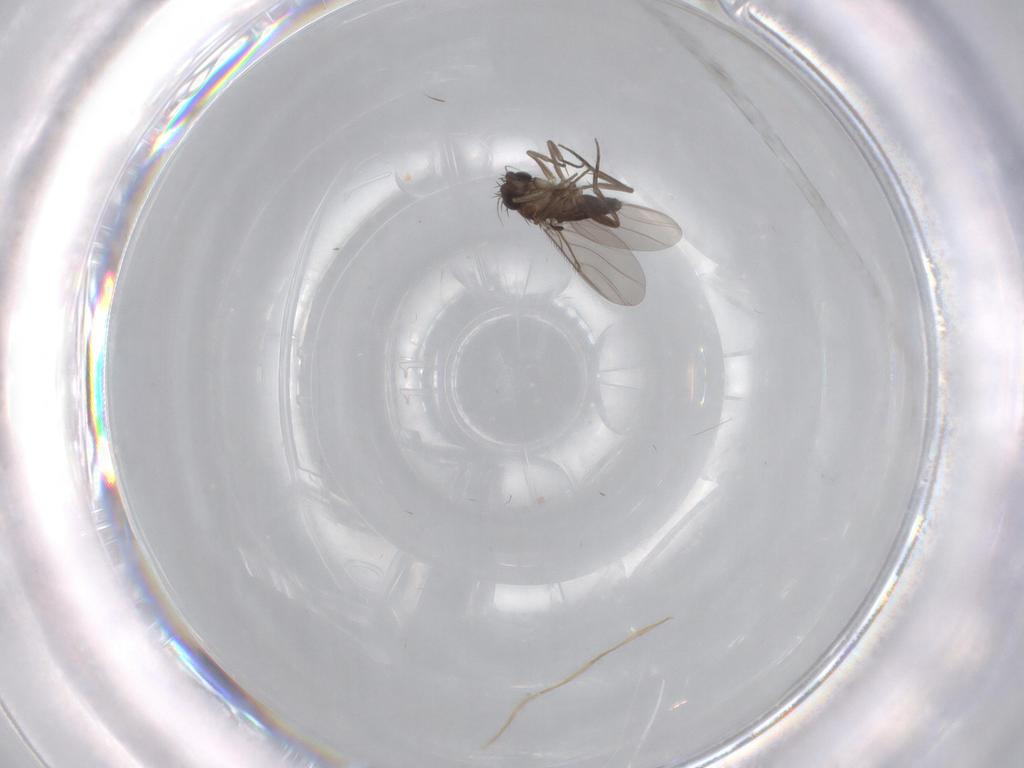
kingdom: Animalia
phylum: Arthropoda
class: Insecta
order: Diptera
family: Phoridae
